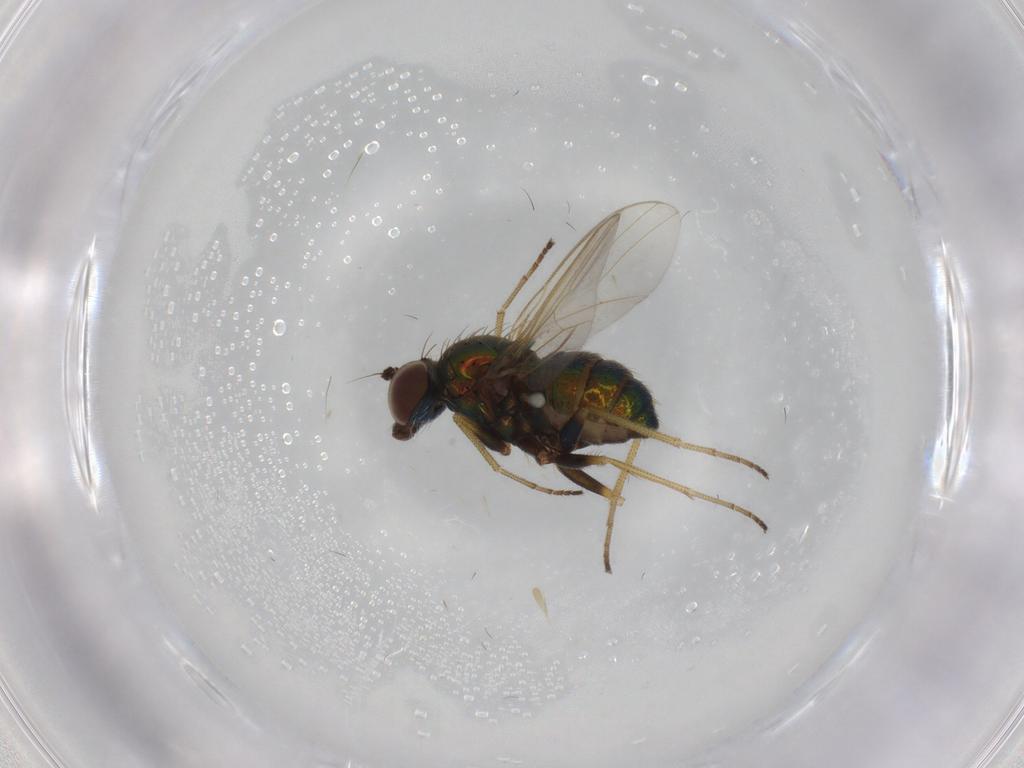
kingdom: Animalia
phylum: Arthropoda
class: Insecta
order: Diptera
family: Dolichopodidae
